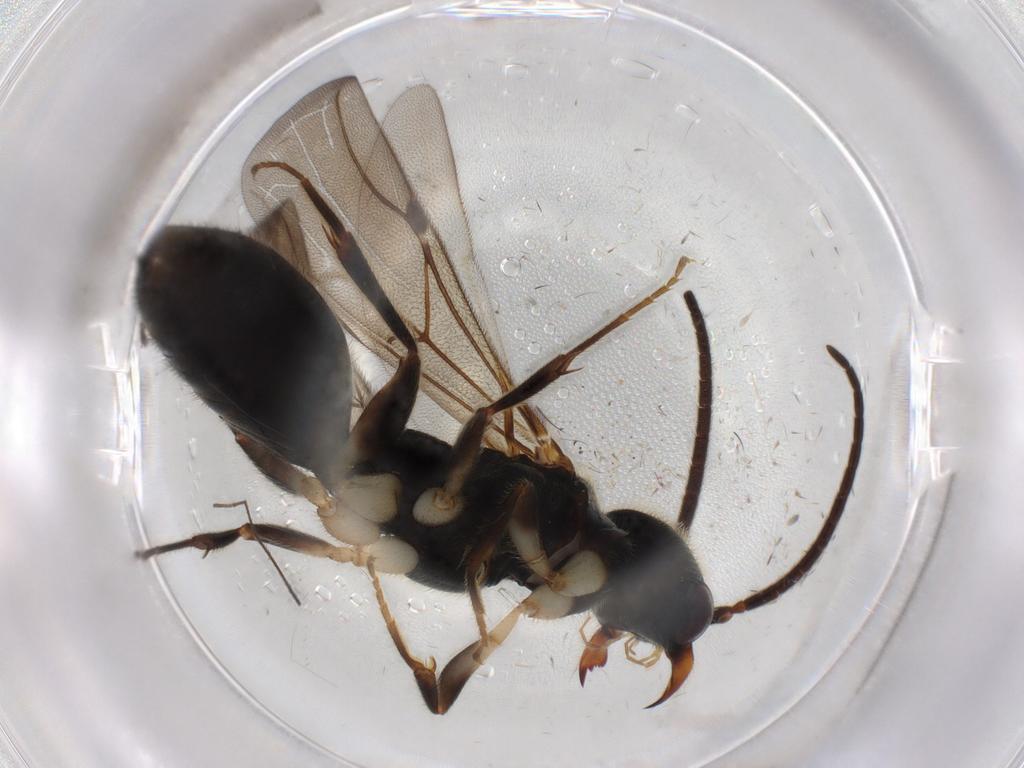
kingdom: Animalia
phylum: Arthropoda
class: Insecta
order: Hymenoptera
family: Bethylidae
